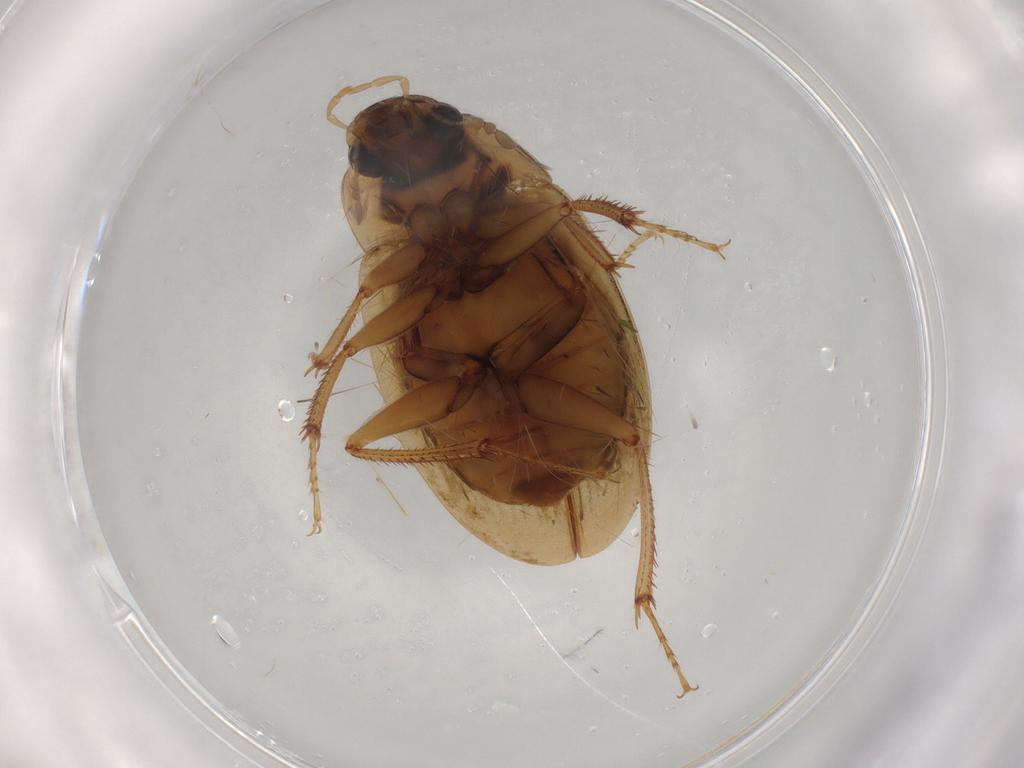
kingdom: Animalia
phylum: Arthropoda
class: Insecta
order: Coleoptera
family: Hydrophilidae
